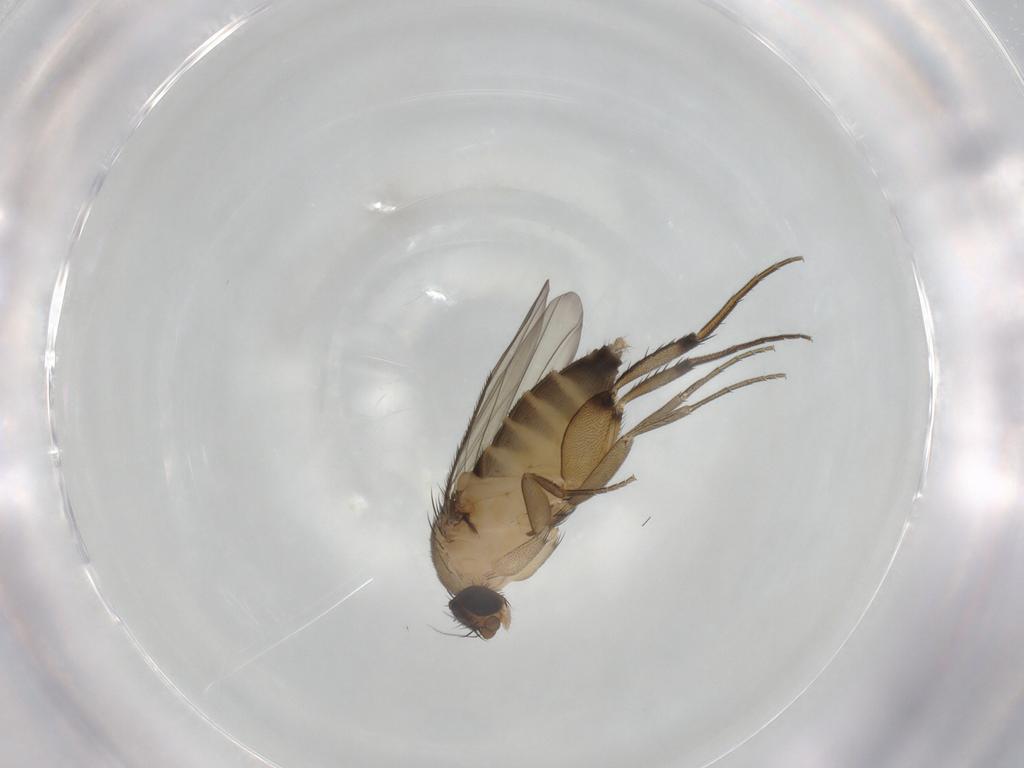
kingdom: Animalia
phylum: Arthropoda
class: Insecta
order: Diptera
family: Phoridae
